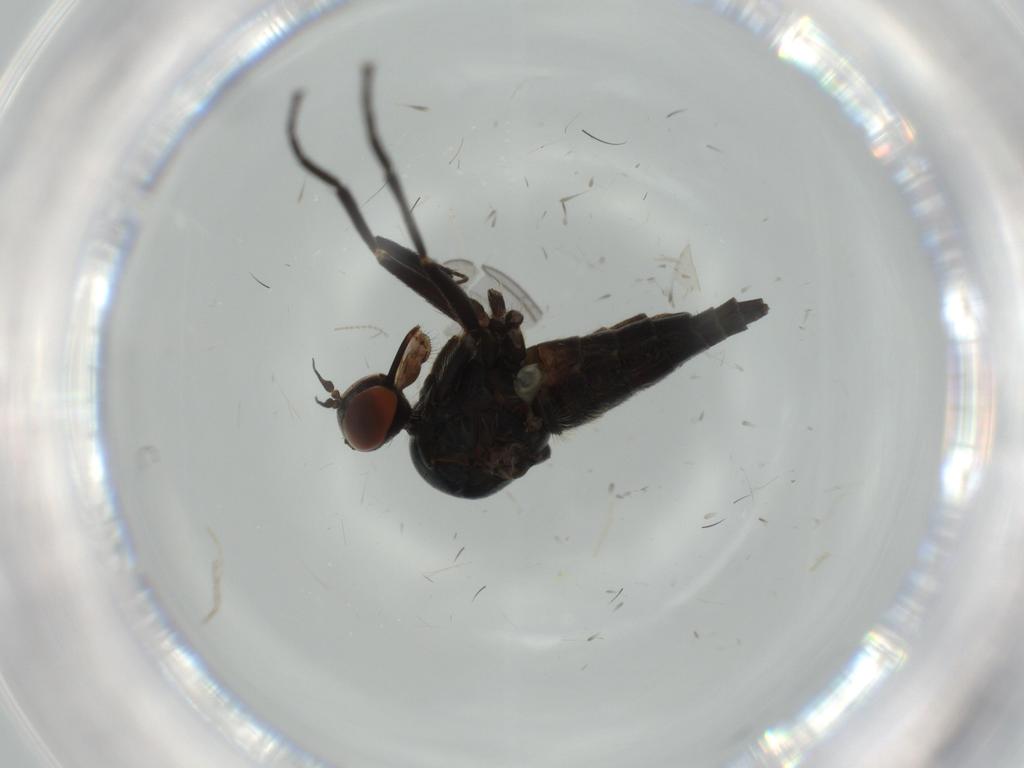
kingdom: Animalia
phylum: Arthropoda
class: Insecta
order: Diptera
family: Empididae
